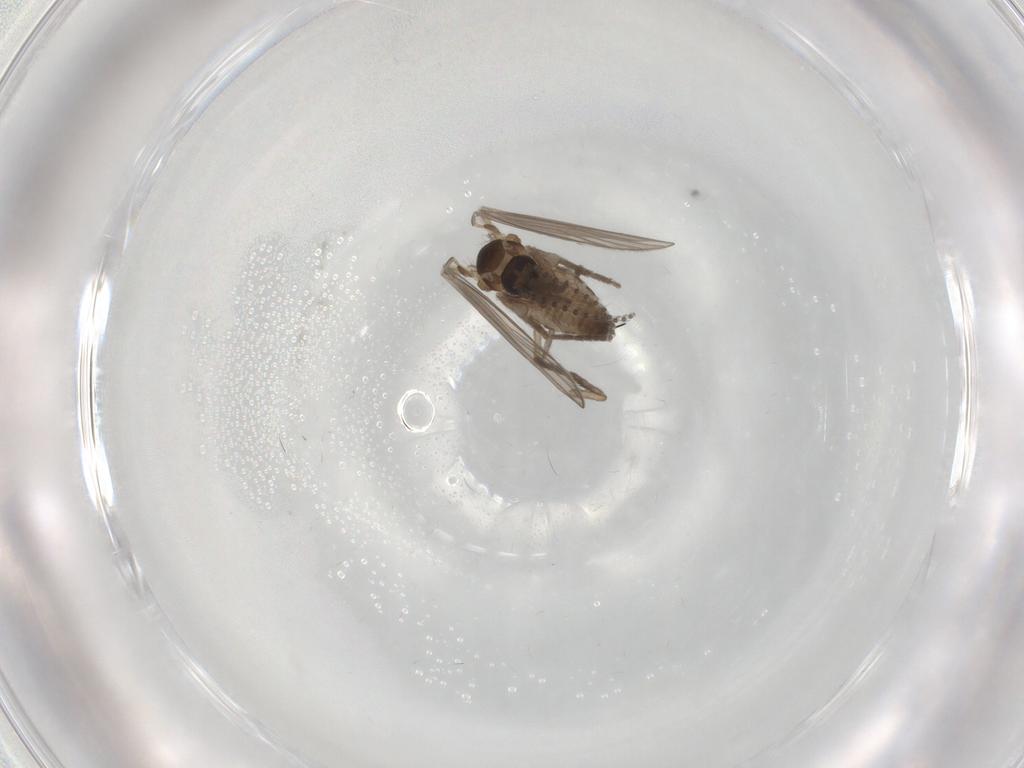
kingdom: Animalia
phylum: Arthropoda
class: Insecta
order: Diptera
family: Psychodidae
